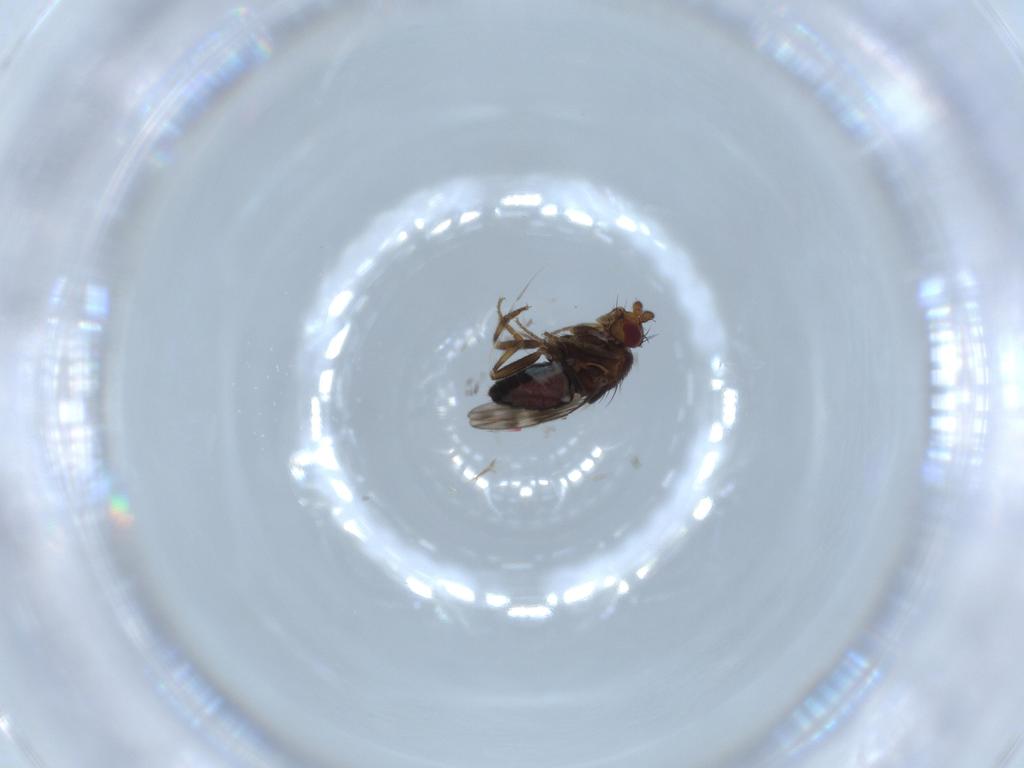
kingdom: Animalia
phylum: Arthropoda
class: Insecta
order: Diptera
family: Sphaeroceridae
